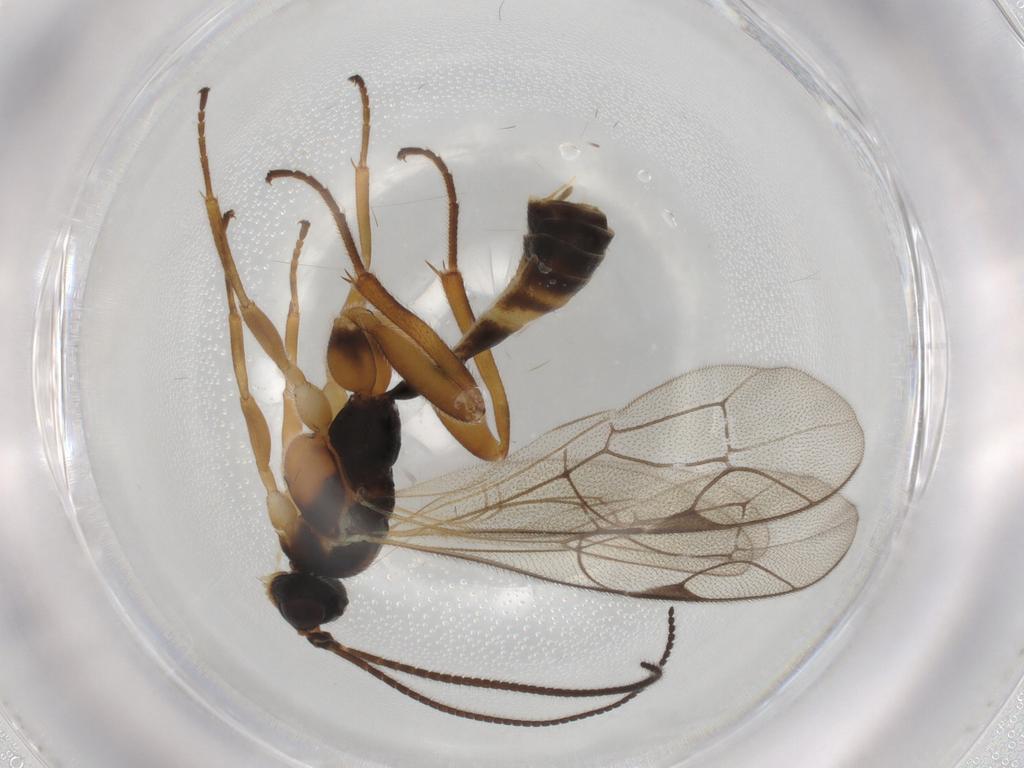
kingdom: Animalia
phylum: Arthropoda
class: Insecta
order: Hymenoptera
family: Ichneumonidae
